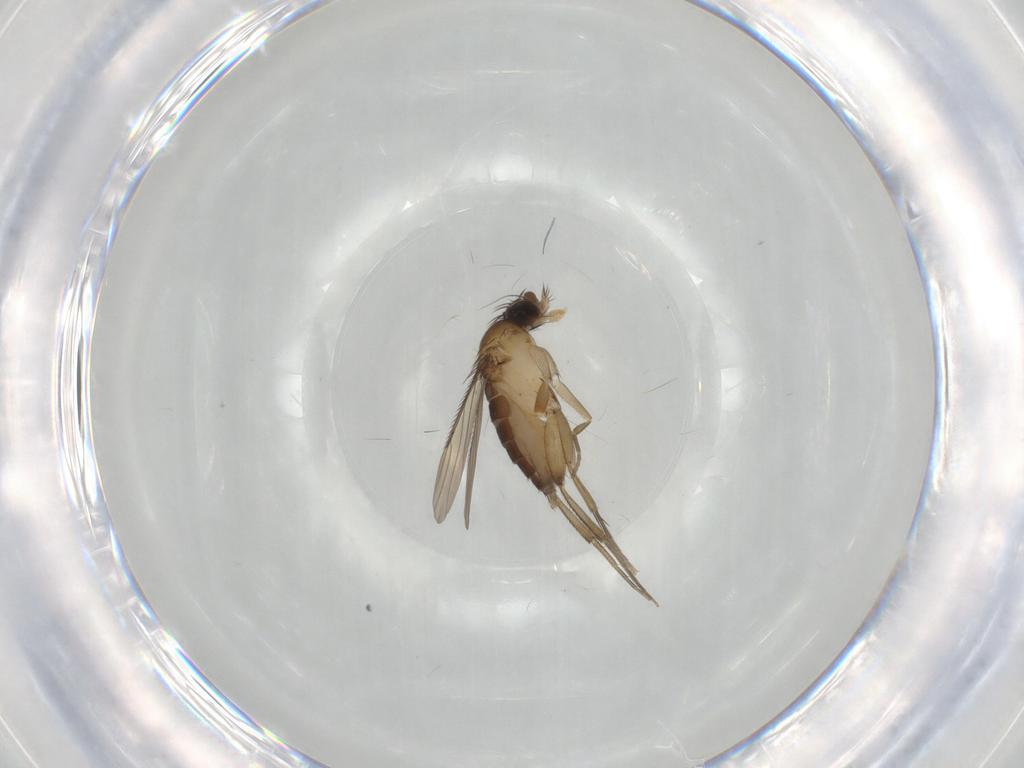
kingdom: Animalia
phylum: Arthropoda
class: Insecta
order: Diptera
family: Phoridae
